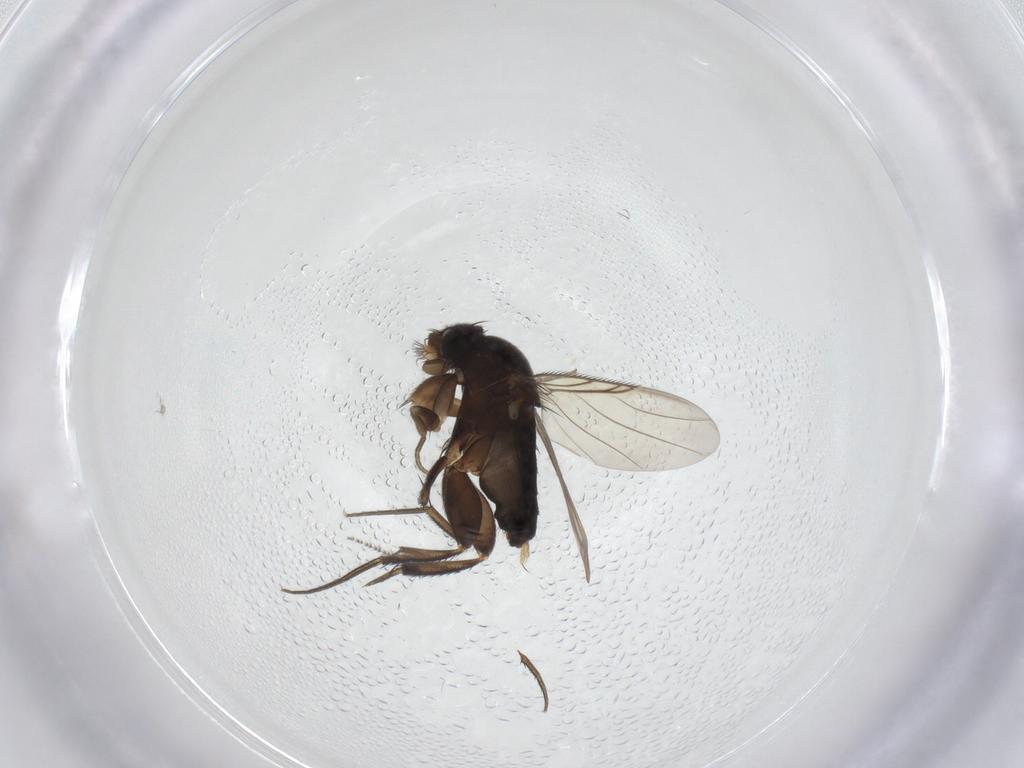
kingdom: Animalia
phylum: Arthropoda
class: Insecta
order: Diptera
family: Phoridae
